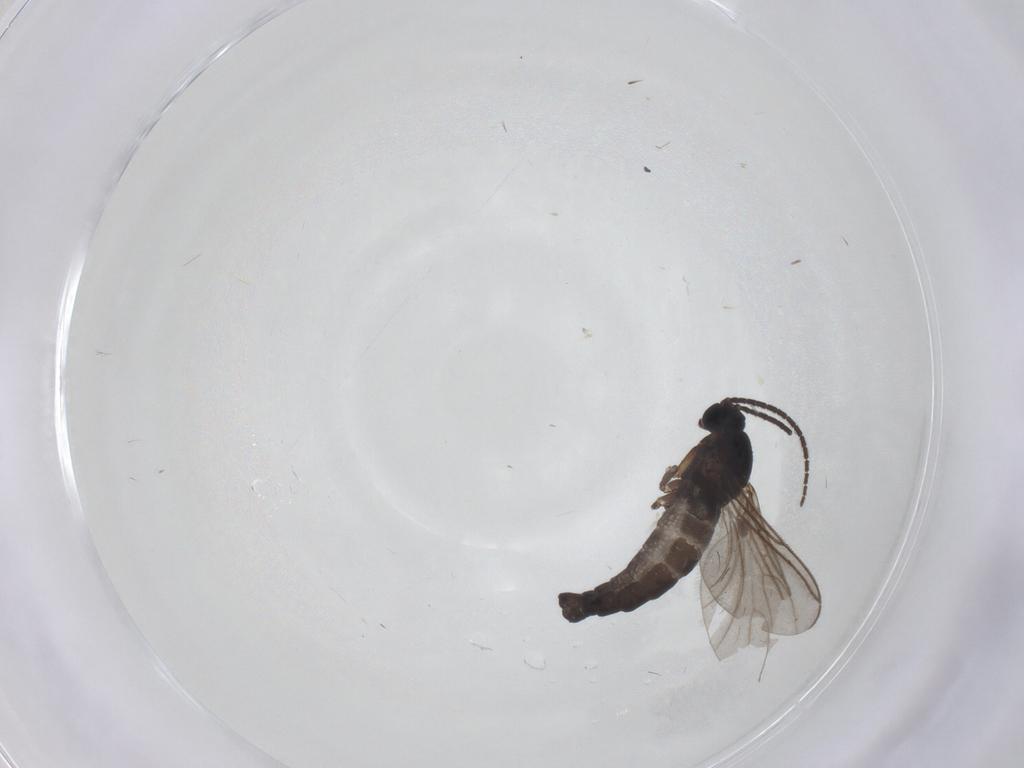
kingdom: Animalia
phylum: Arthropoda
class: Insecta
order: Diptera
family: Sciaridae
